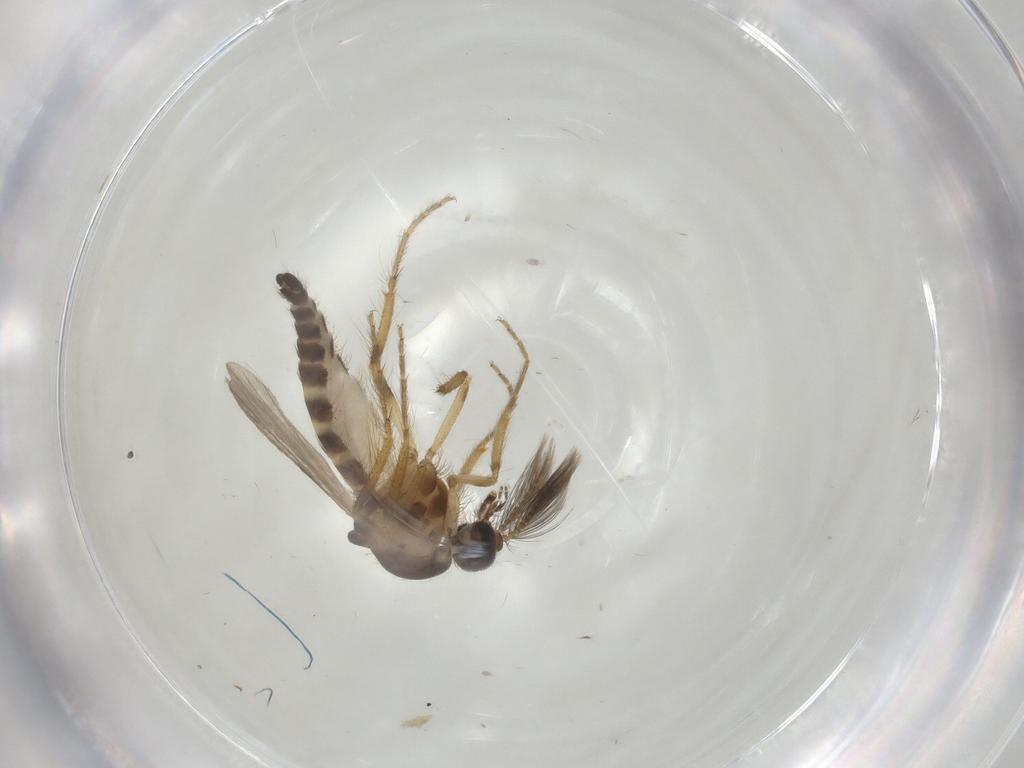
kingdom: Animalia
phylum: Arthropoda
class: Insecta
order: Diptera
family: Ceratopogonidae
